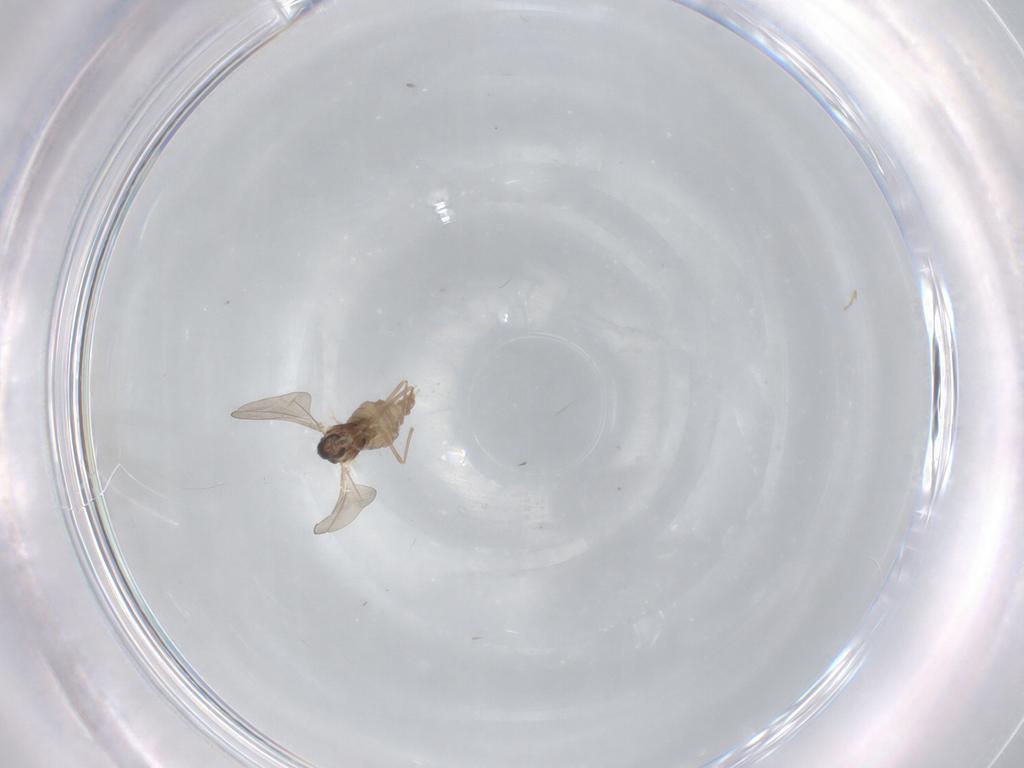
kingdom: Animalia
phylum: Arthropoda
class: Insecta
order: Diptera
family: Cecidomyiidae
